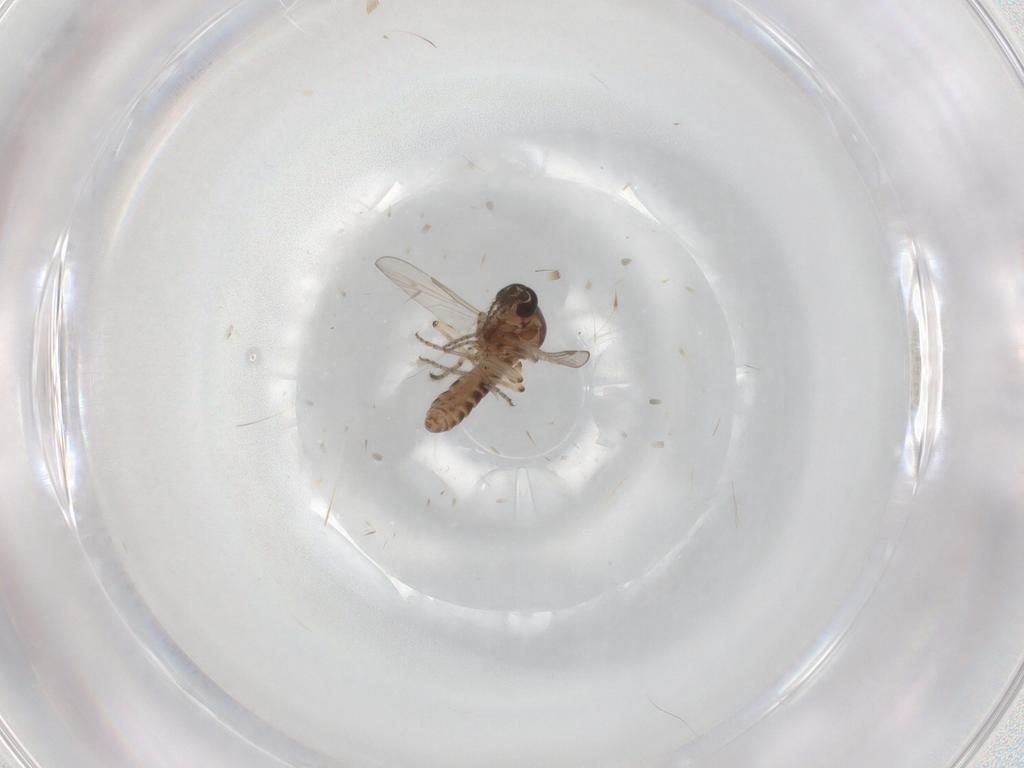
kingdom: Animalia
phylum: Arthropoda
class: Insecta
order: Diptera
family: Ceratopogonidae
